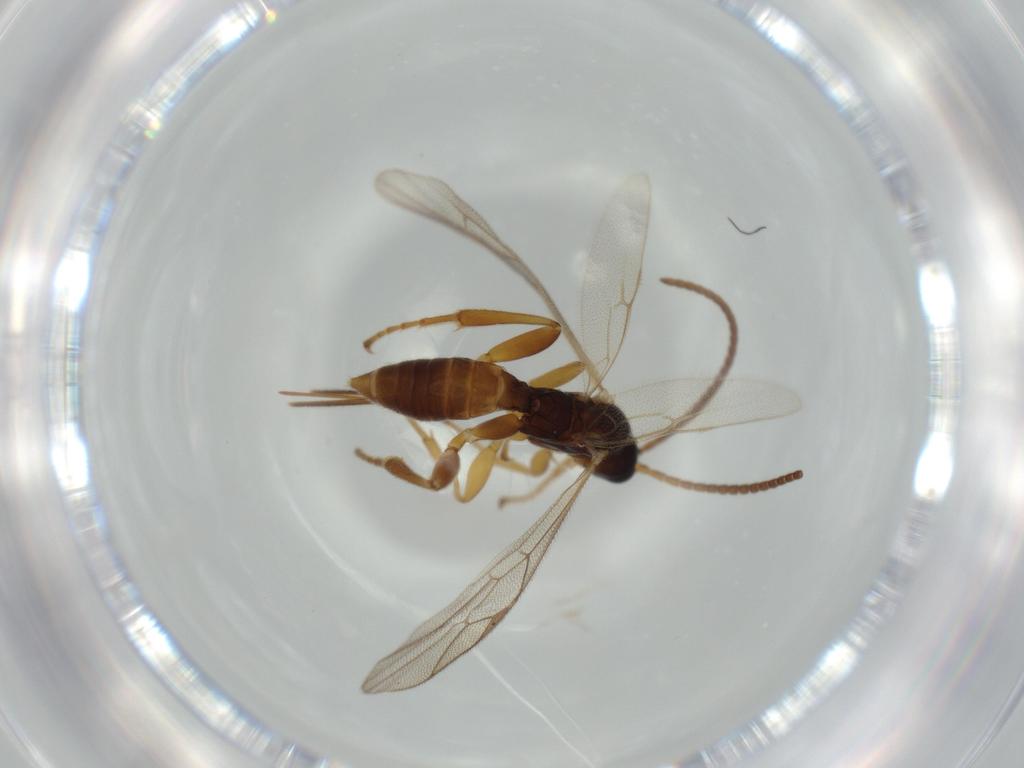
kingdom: Animalia
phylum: Arthropoda
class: Insecta
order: Hymenoptera
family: Ichneumonidae
